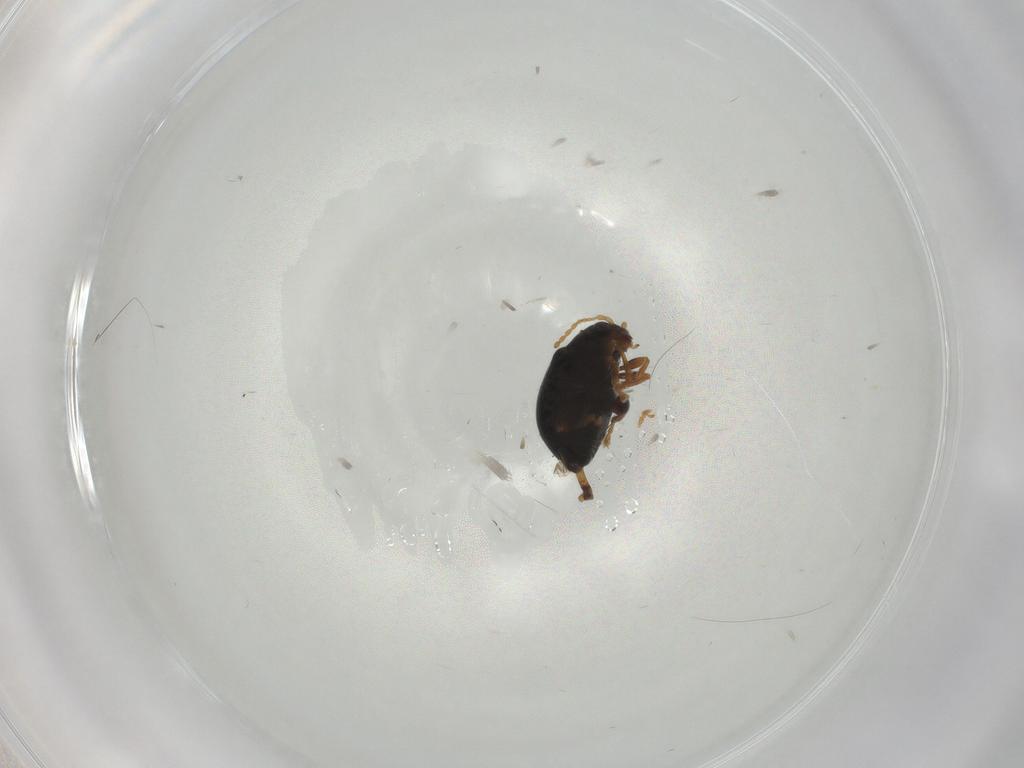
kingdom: Animalia
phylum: Arthropoda
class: Insecta
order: Coleoptera
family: Chrysomelidae
